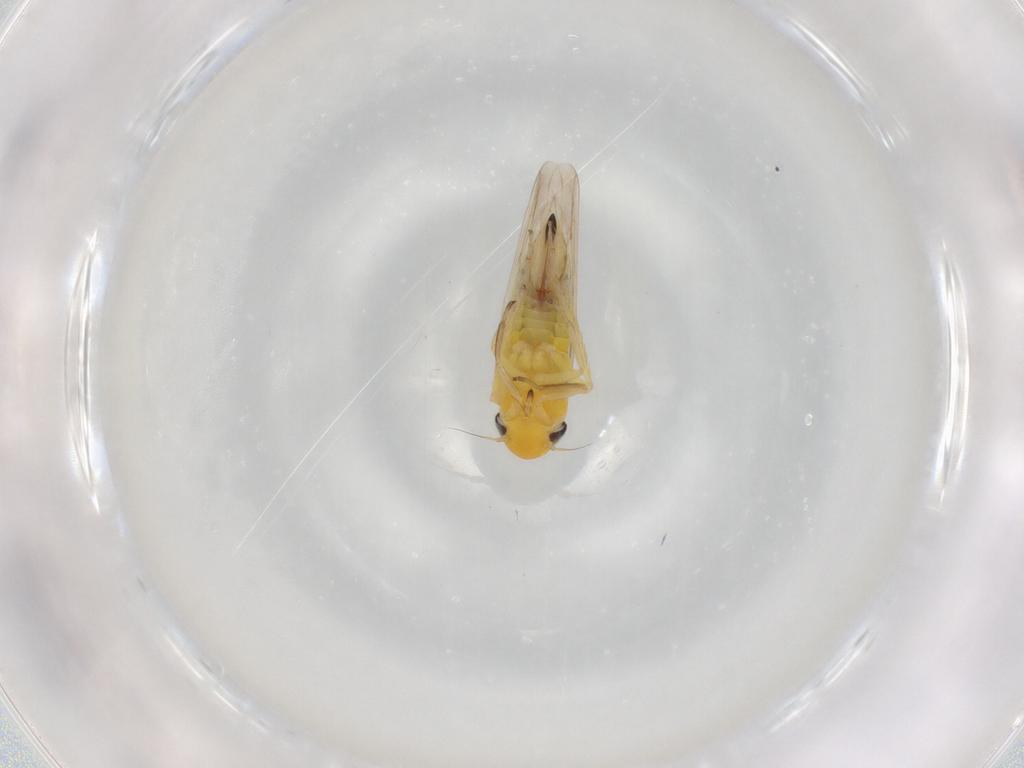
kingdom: Animalia
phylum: Arthropoda
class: Insecta
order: Hemiptera
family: Cicadellidae
